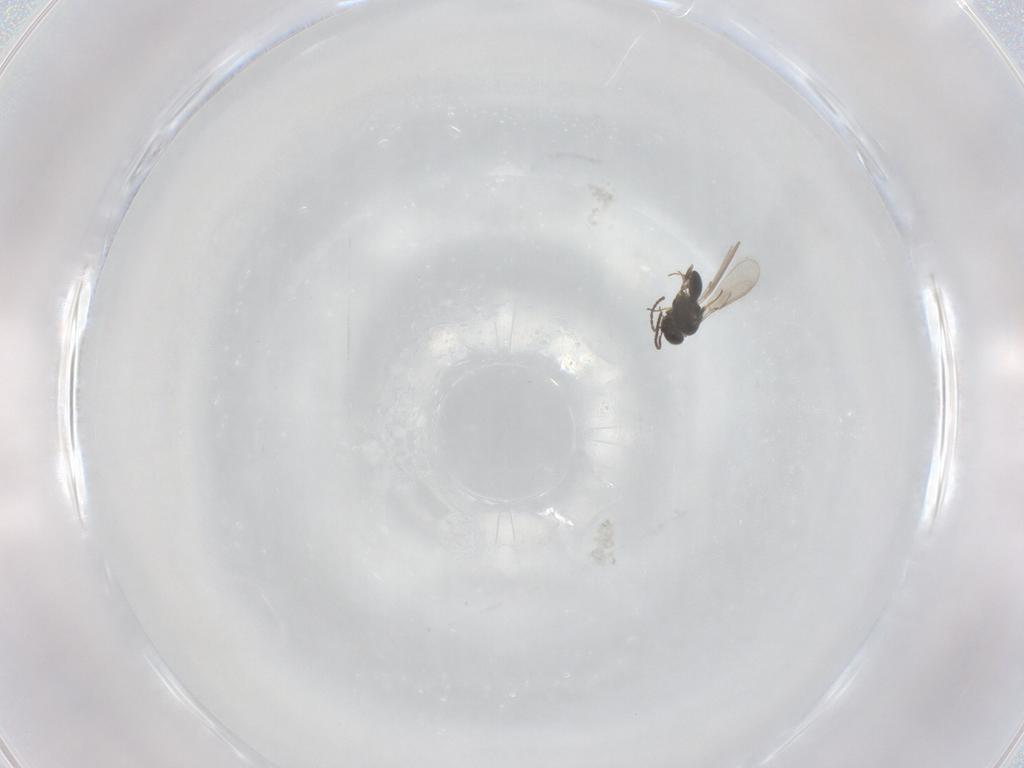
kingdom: Animalia
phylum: Arthropoda
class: Insecta
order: Hymenoptera
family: Scelionidae
